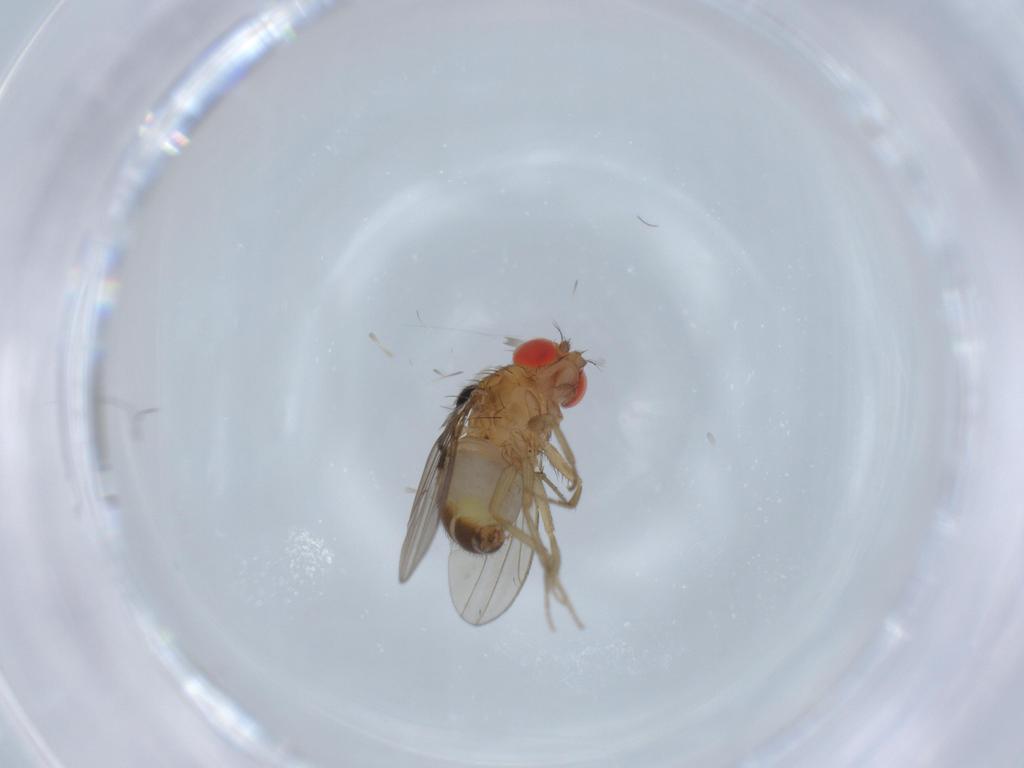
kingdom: Animalia
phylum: Arthropoda
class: Insecta
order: Diptera
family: Drosophilidae
